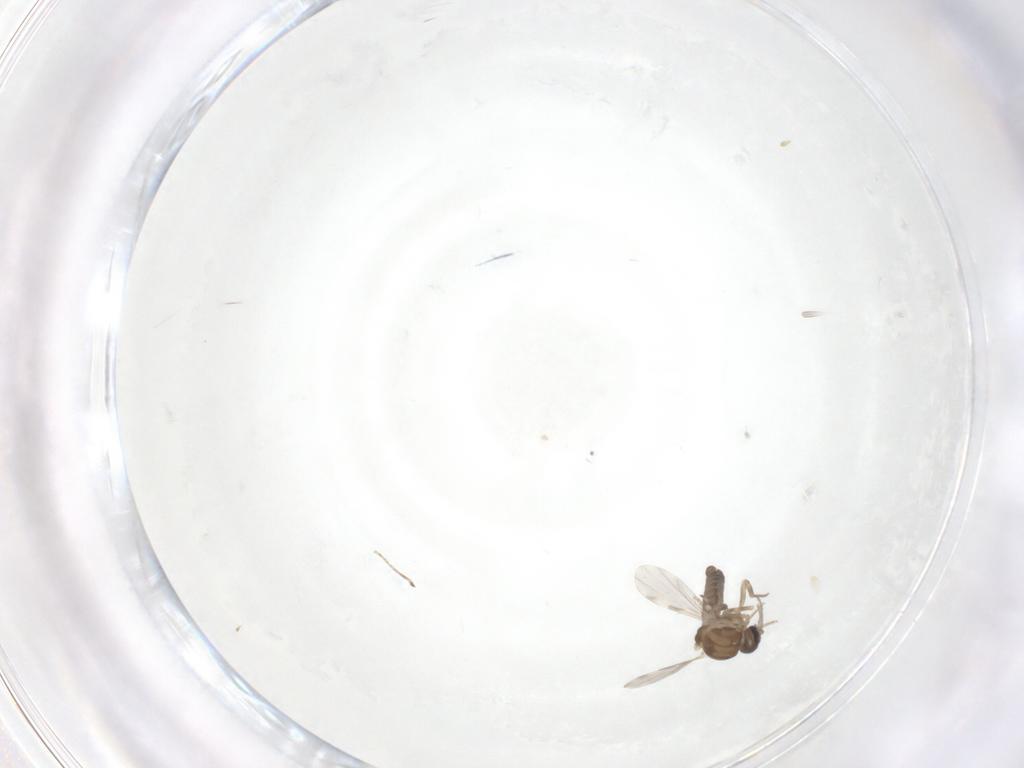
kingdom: Animalia
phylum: Arthropoda
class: Insecta
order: Diptera
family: Ceratopogonidae
